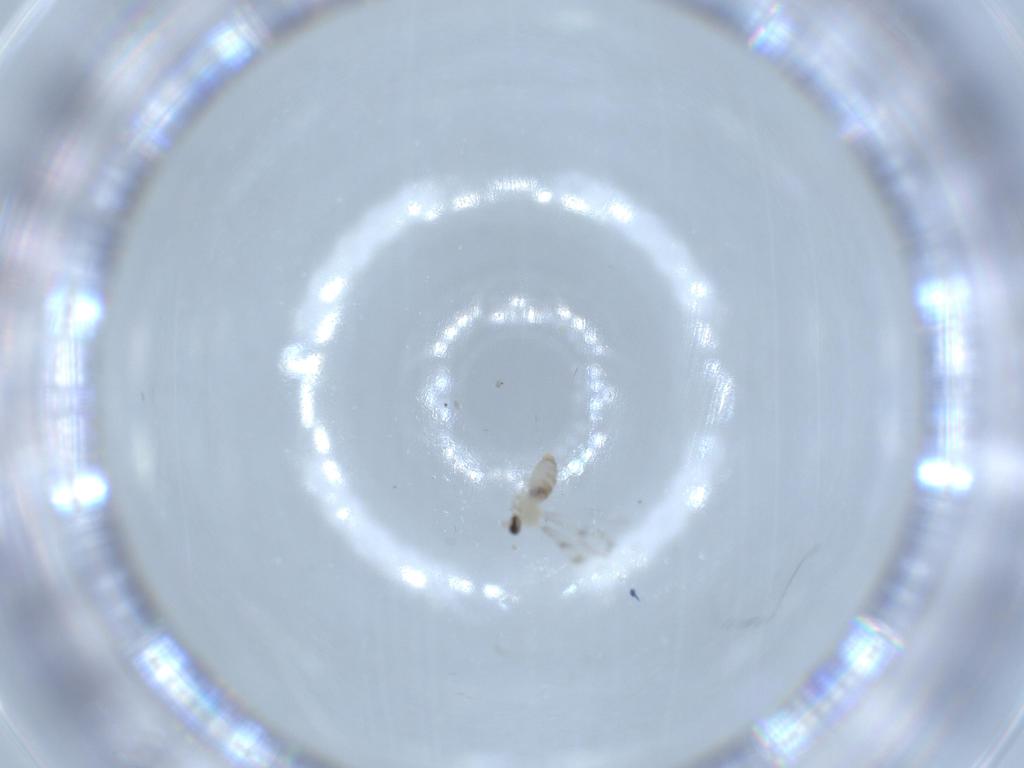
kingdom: Animalia
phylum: Arthropoda
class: Insecta
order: Diptera
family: Cecidomyiidae
